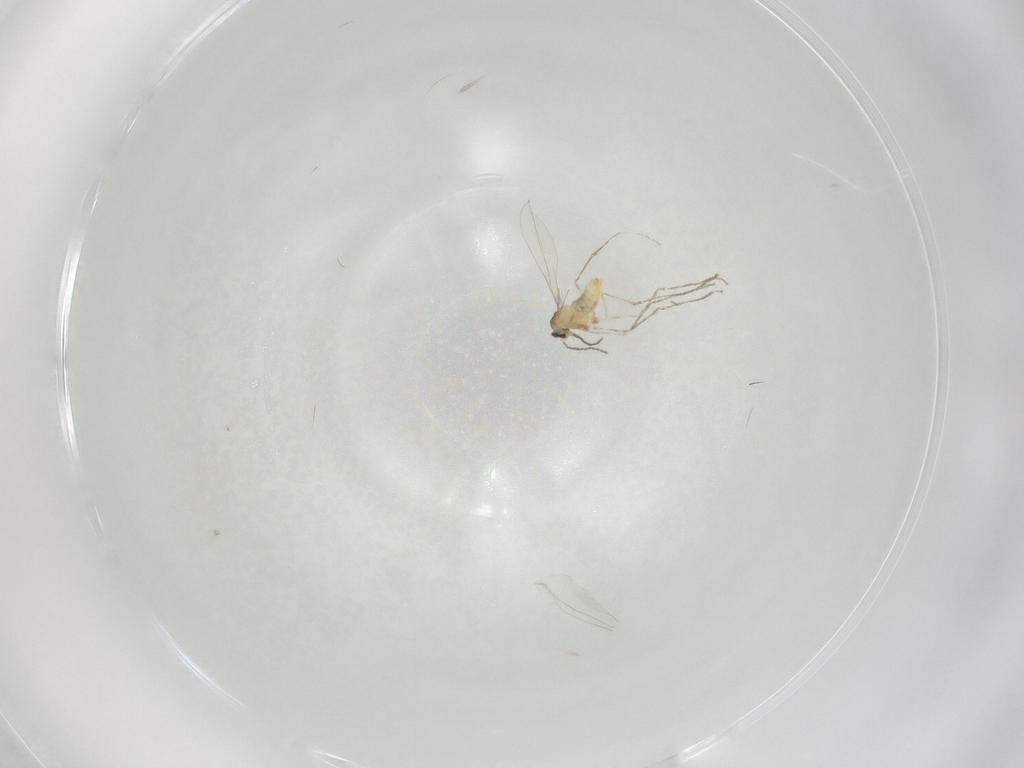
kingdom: Animalia
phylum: Arthropoda
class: Insecta
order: Diptera
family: Cecidomyiidae
